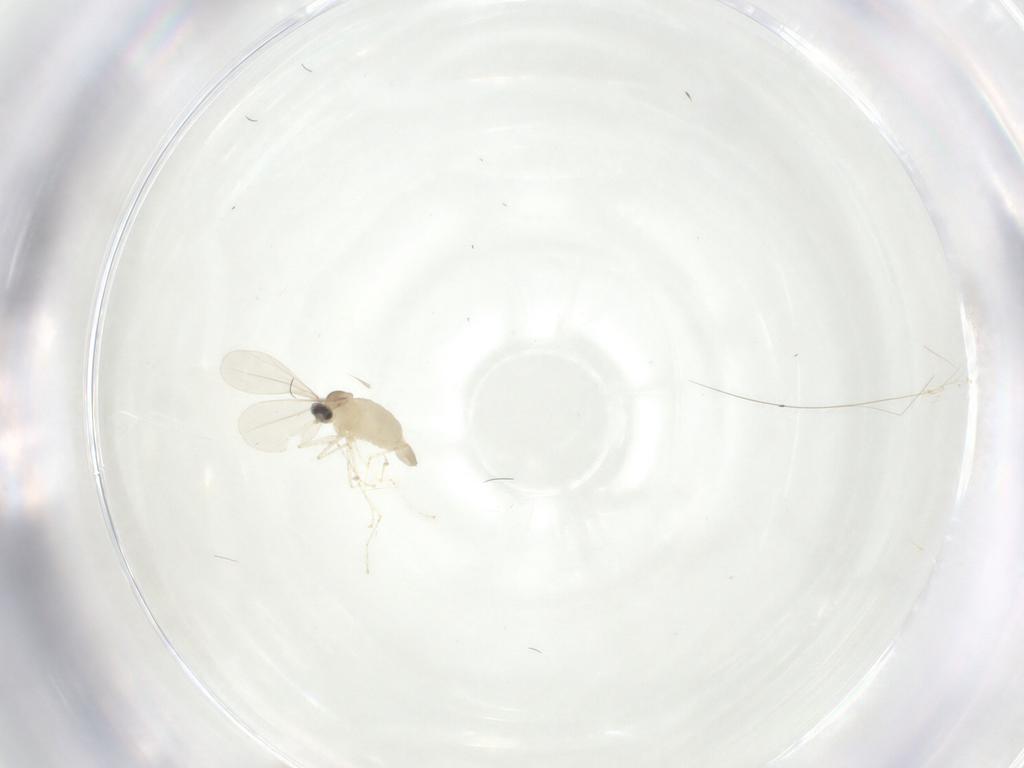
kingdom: Animalia
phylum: Arthropoda
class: Insecta
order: Diptera
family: Cecidomyiidae
